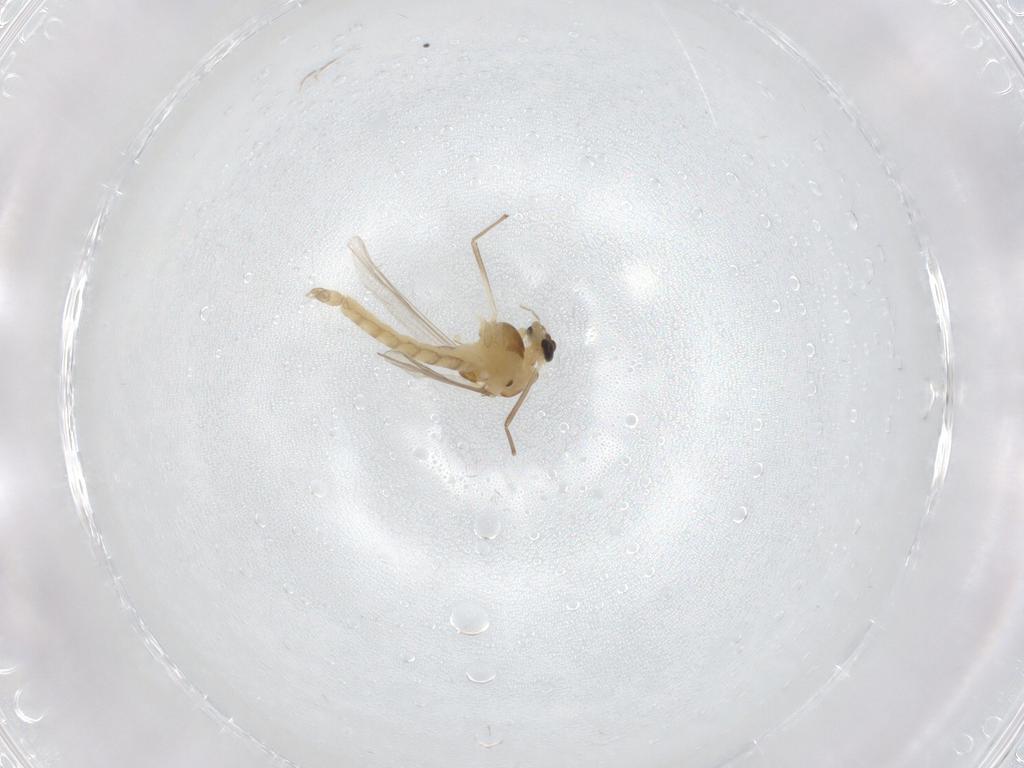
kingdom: Animalia
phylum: Arthropoda
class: Insecta
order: Diptera
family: Chironomidae
